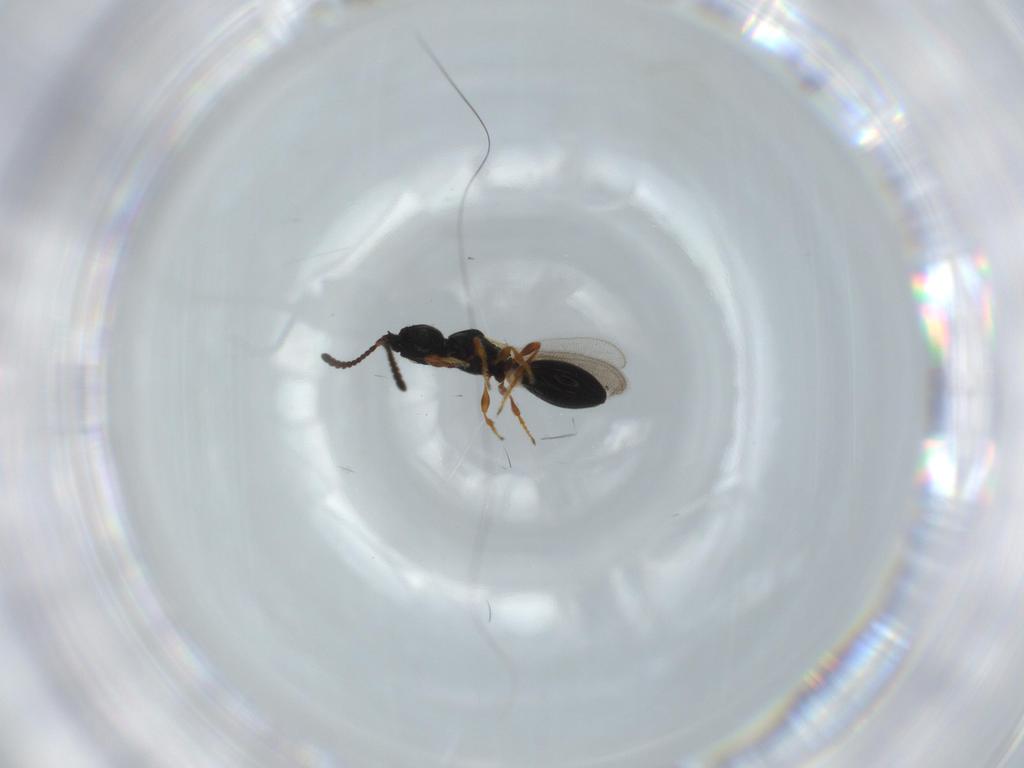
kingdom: Animalia
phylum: Arthropoda
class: Insecta
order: Hymenoptera
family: Diapriidae
